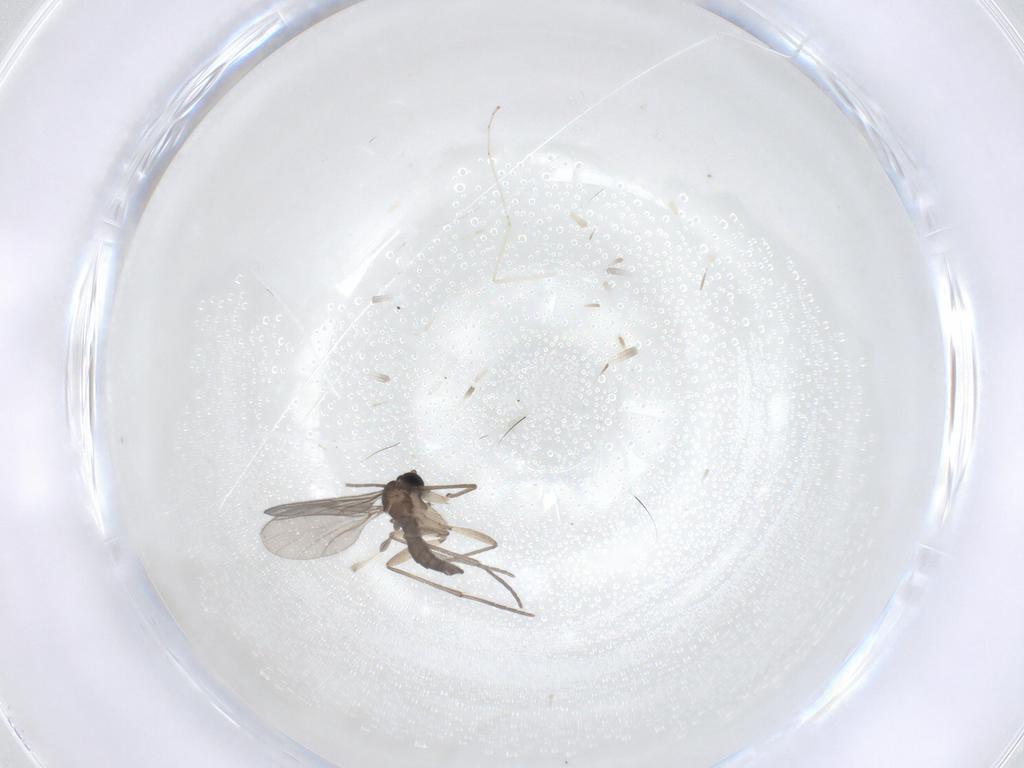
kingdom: Animalia
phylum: Arthropoda
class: Insecta
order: Diptera
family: Sciaridae
